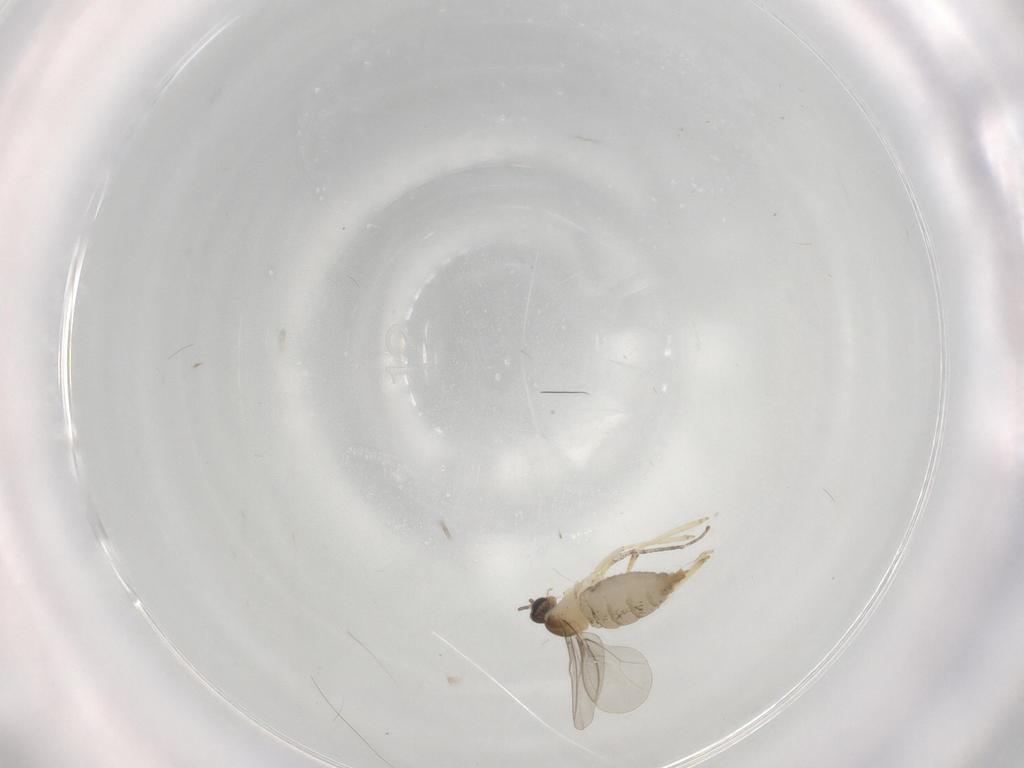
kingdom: Animalia
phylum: Arthropoda
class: Insecta
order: Diptera
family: Cecidomyiidae
